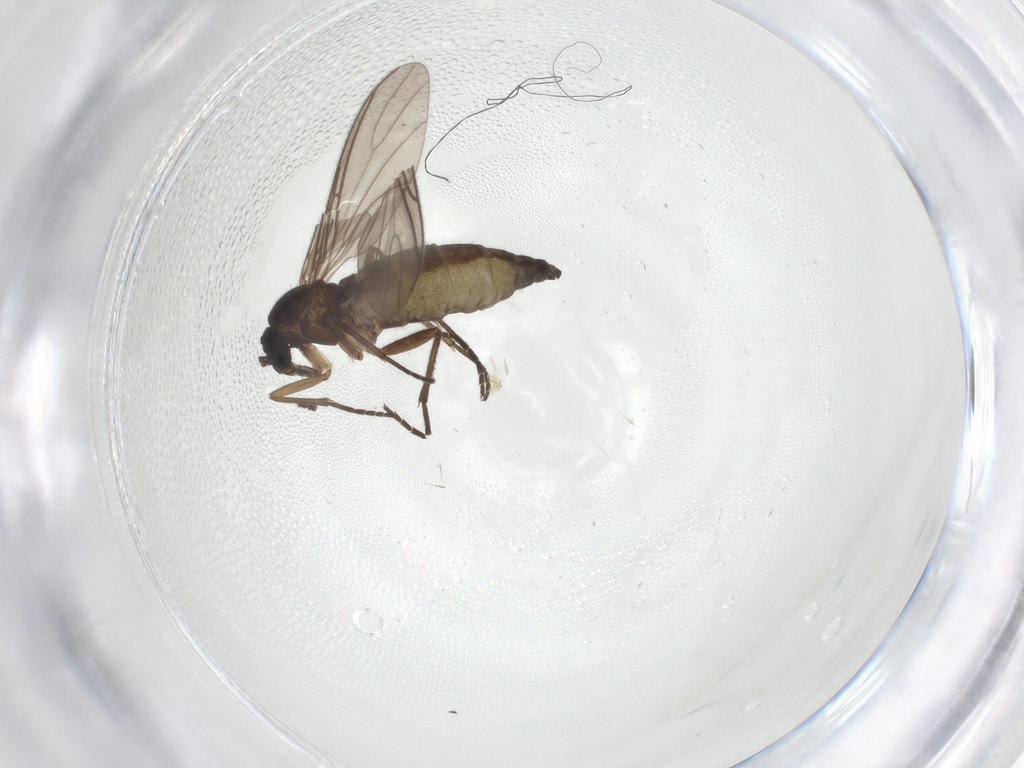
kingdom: Animalia
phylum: Arthropoda
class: Insecta
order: Diptera
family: Sciaridae
